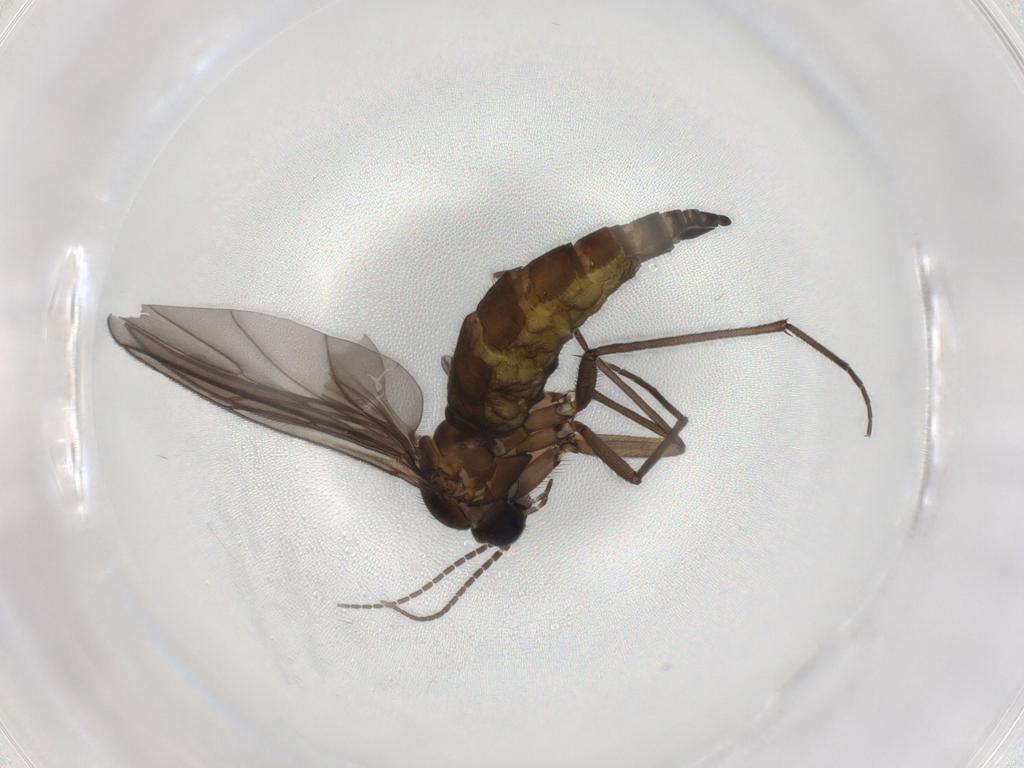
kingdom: Animalia
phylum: Arthropoda
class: Insecta
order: Diptera
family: Sciaridae
